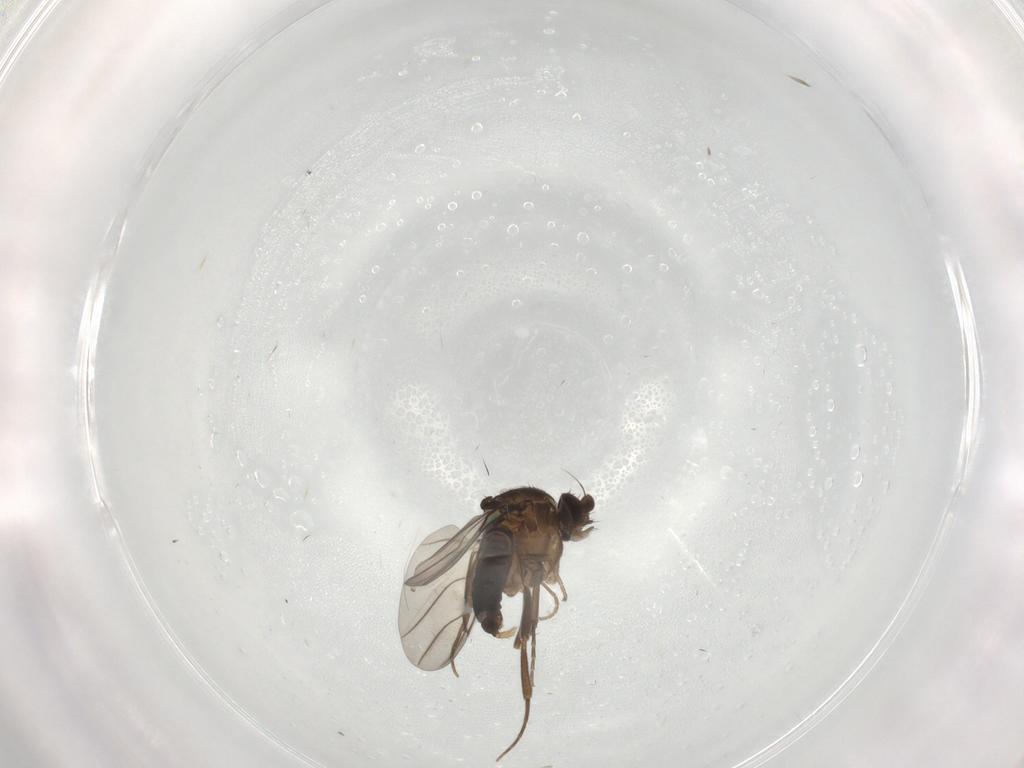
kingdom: Animalia
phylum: Arthropoda
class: Insecta
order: Diptera
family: Phoridae
